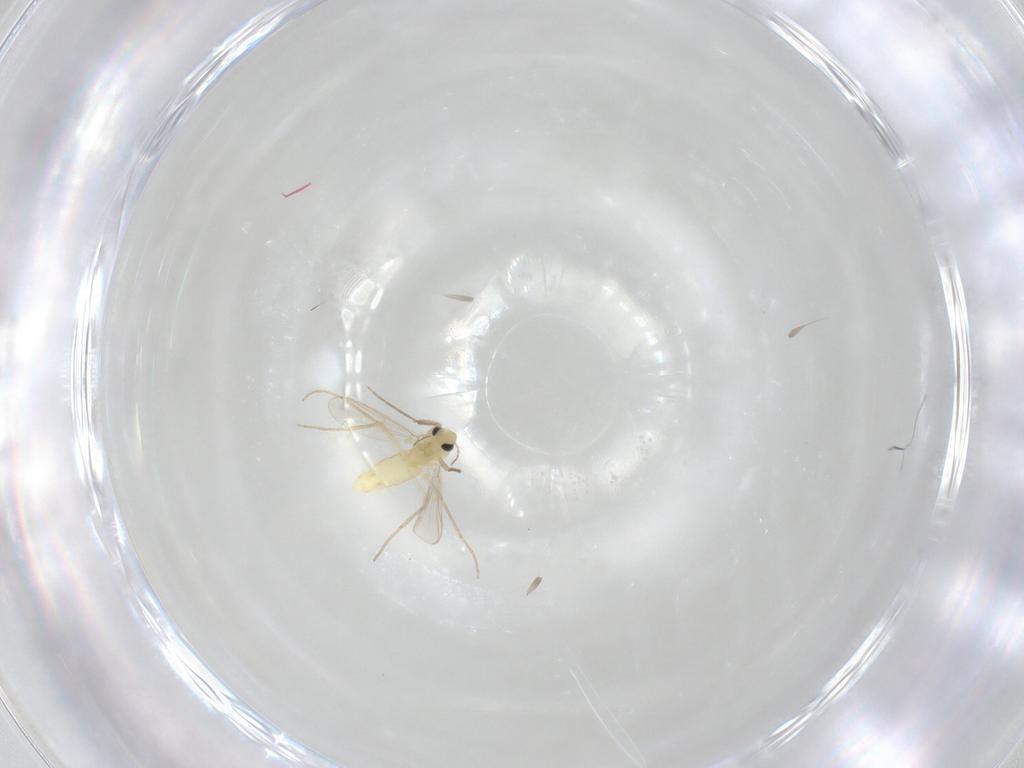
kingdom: Animalia
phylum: Arthropoda
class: Insecta
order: Diptera
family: Chironomidae
